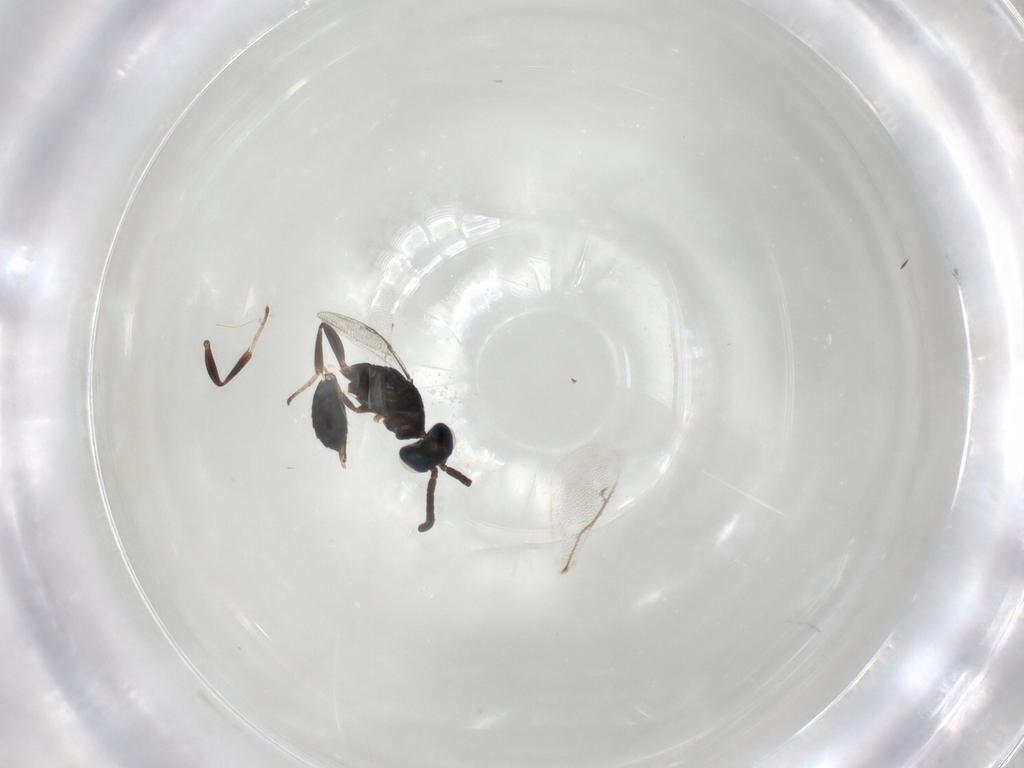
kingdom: Animalia
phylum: Arthropoda
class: Insecta
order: Hymenoptera
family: Eupelmidae
